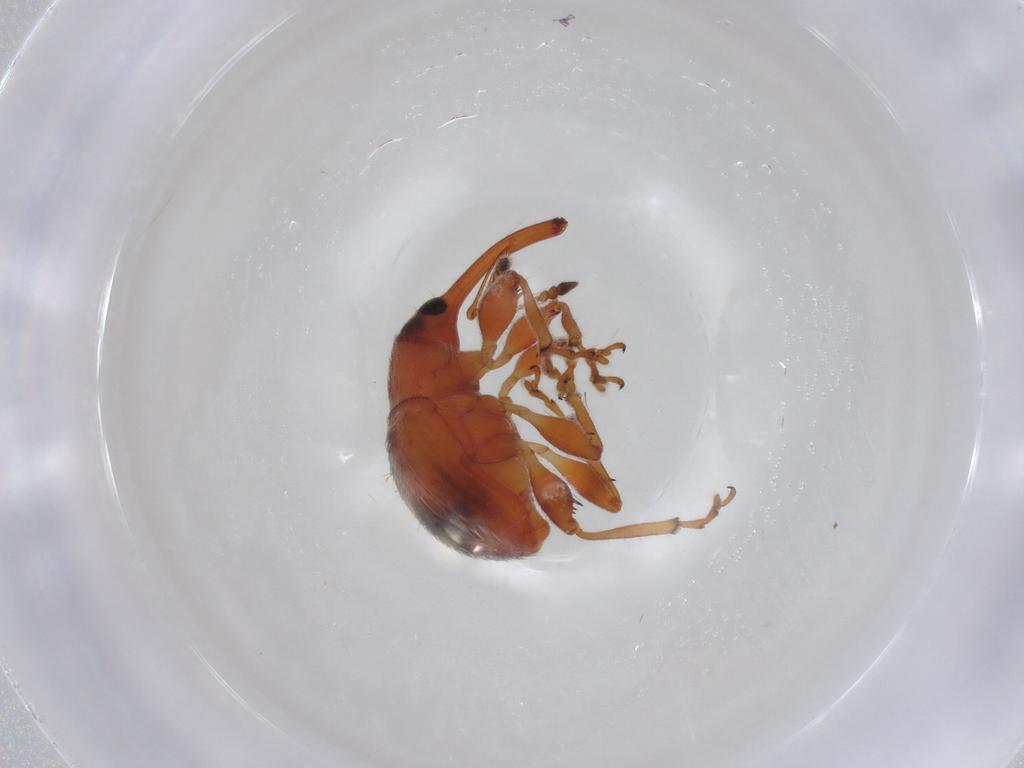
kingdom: Animalia
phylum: Arthropoda
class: Insecta
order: Coleoptera
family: Brentidae
